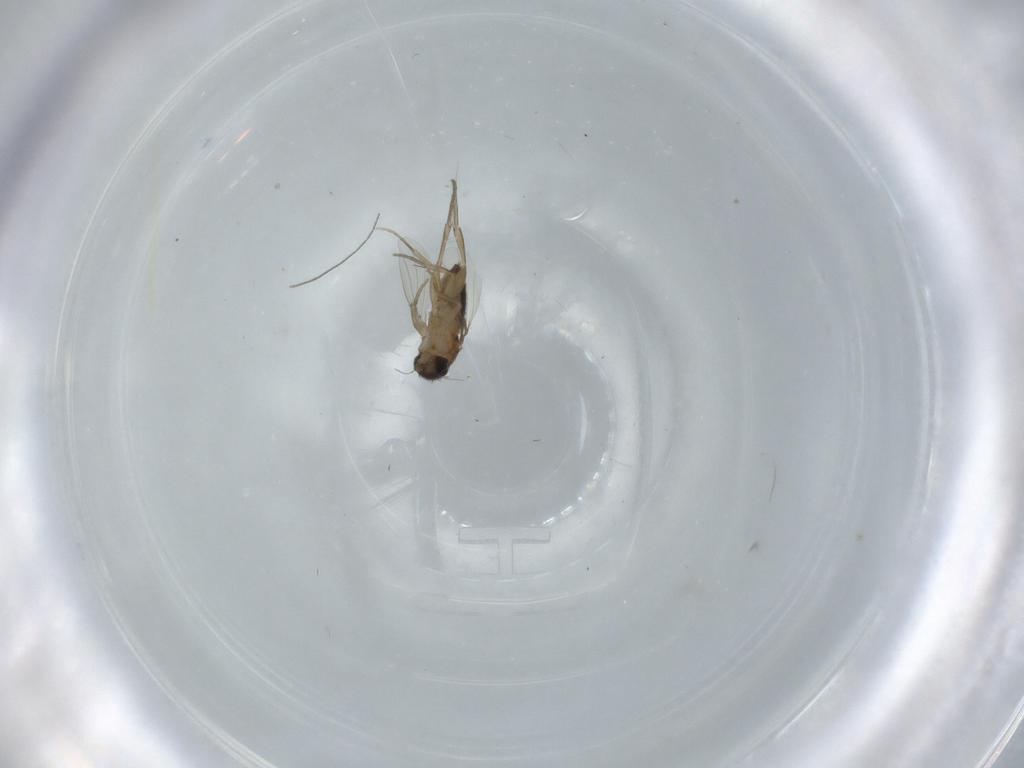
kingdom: Animalia
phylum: Arthropoda
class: Insecta
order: Diptera
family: Phoridae
